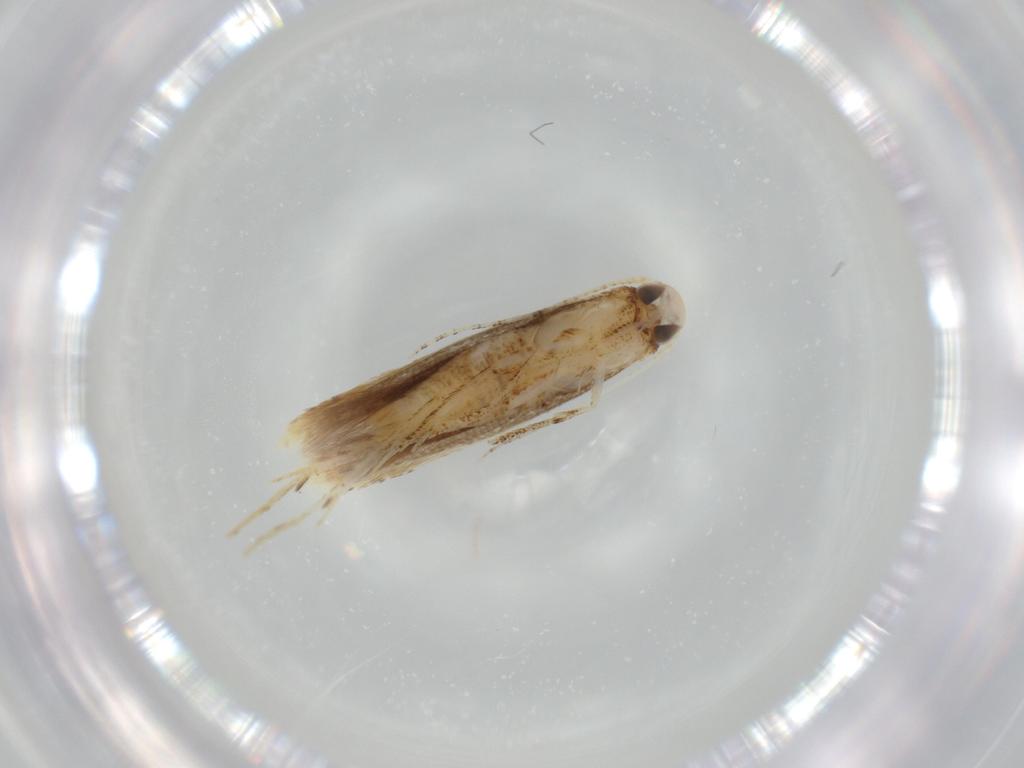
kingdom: Animalia
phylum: Arthropoda
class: Insecta
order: Lepidoptera
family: Gelechiidae
